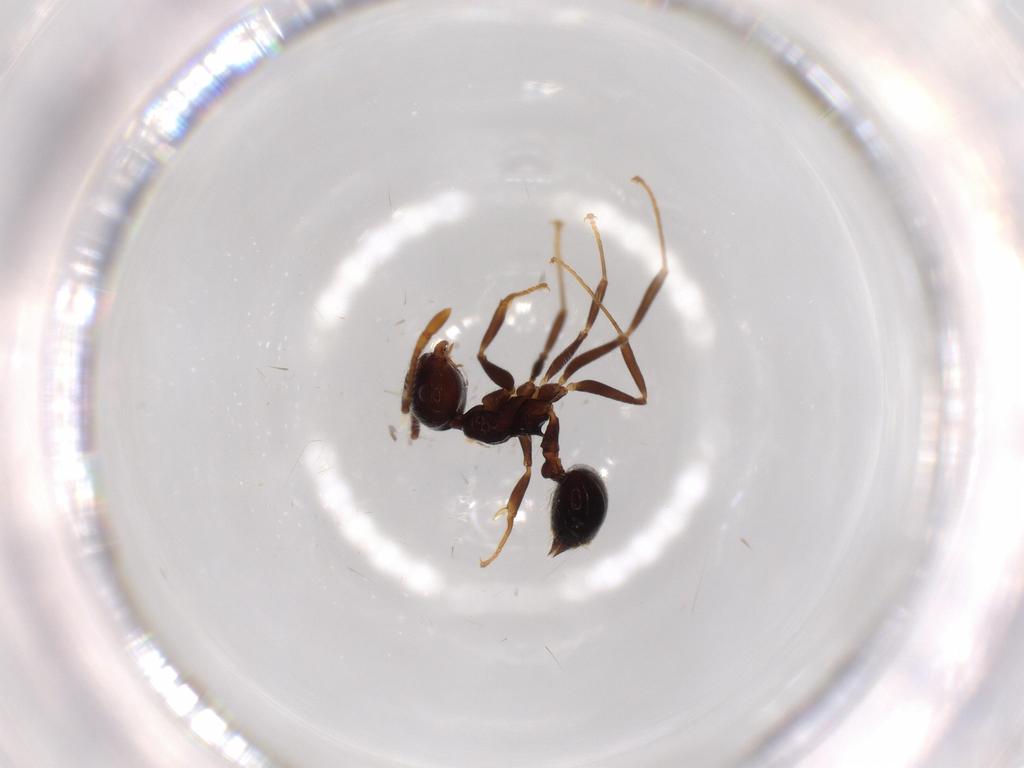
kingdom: Animalia
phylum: Arthropoda
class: Insecta
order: Hymenoptera
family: Formicidae
